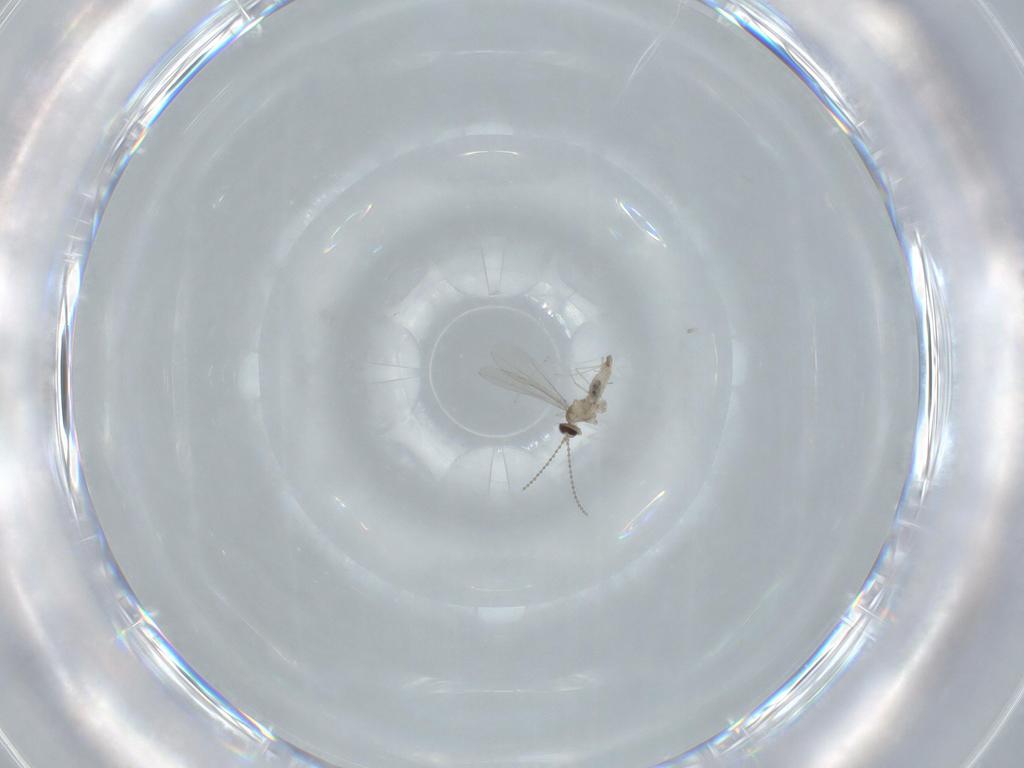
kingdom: Animalia
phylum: Arthropoda
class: Insecta
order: Diptera
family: Cecidomyiidae
